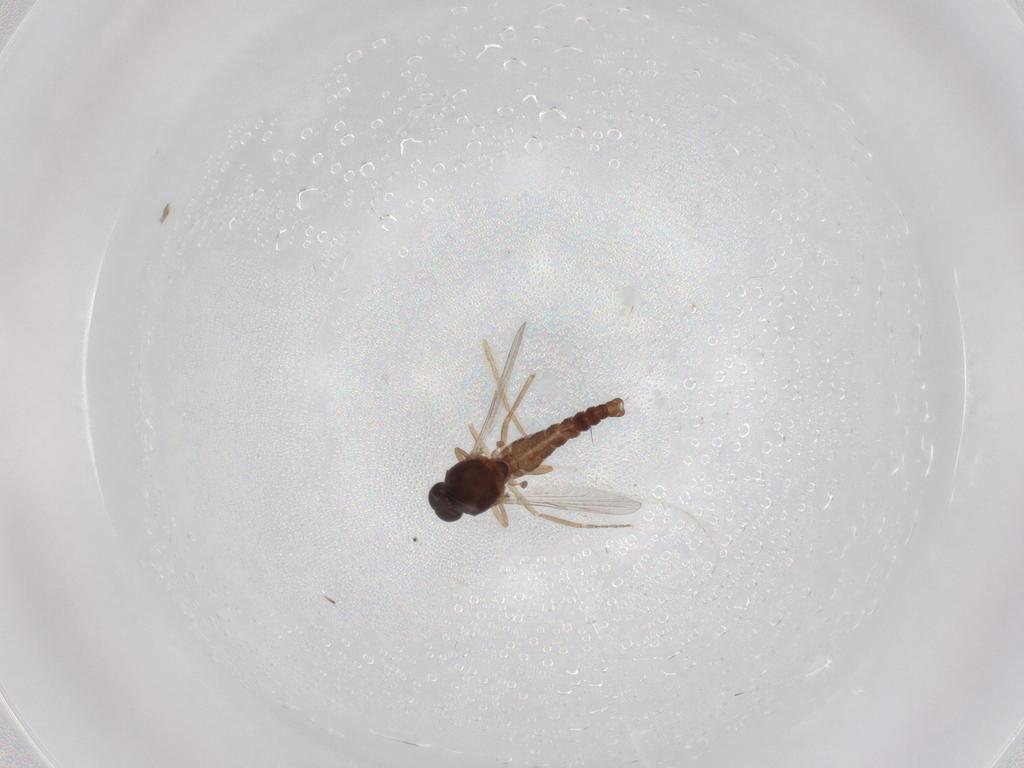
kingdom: Animalia
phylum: Arthropoda
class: Insecta
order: Diptera
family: Ceratopogonidae
